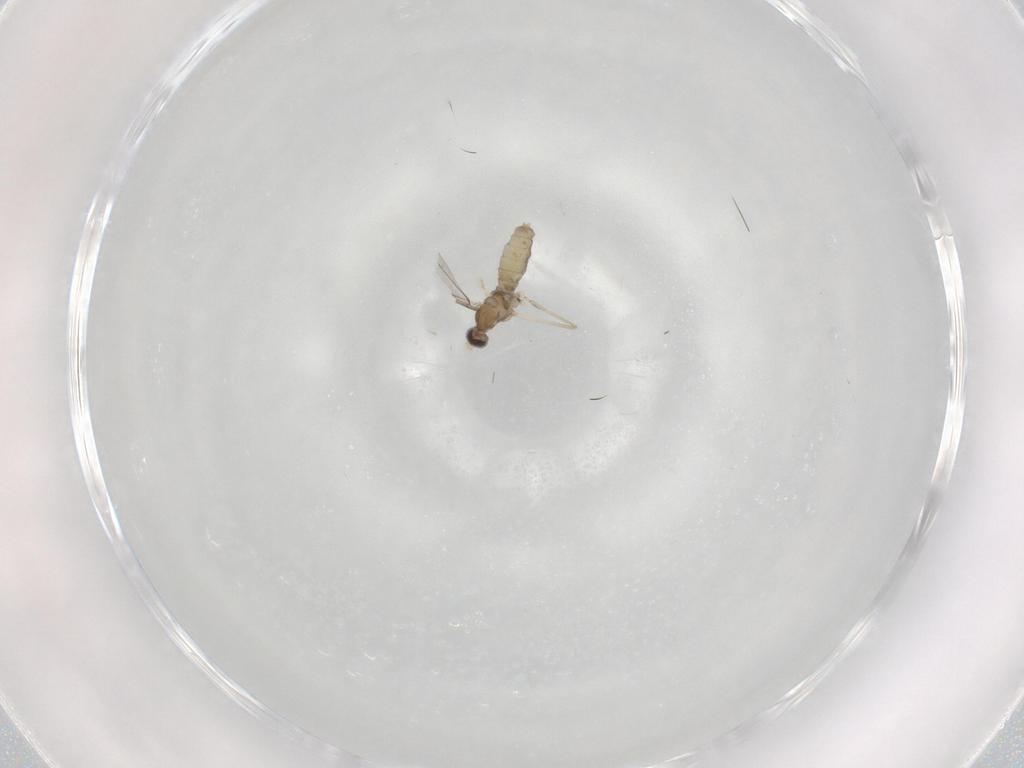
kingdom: Animalia
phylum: Arthropoda
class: Insecta
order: Diptera
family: Cecidomyiidae
